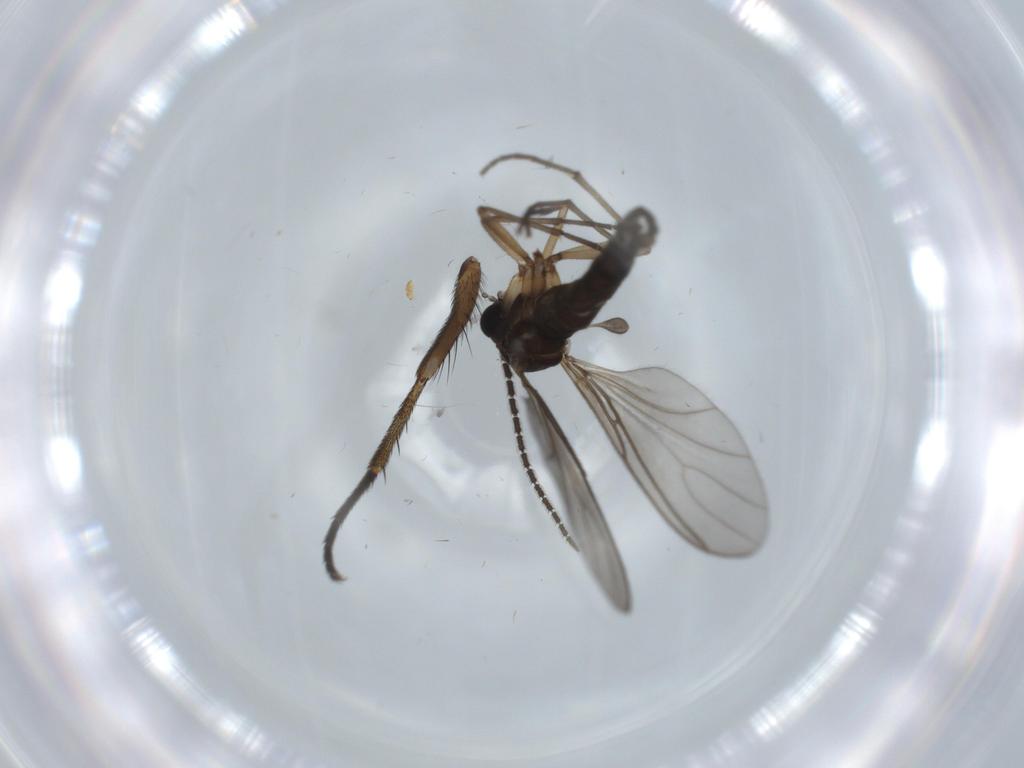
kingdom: Animalia
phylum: Arthropoda
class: Insecta
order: Diptera
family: Sciaridae
